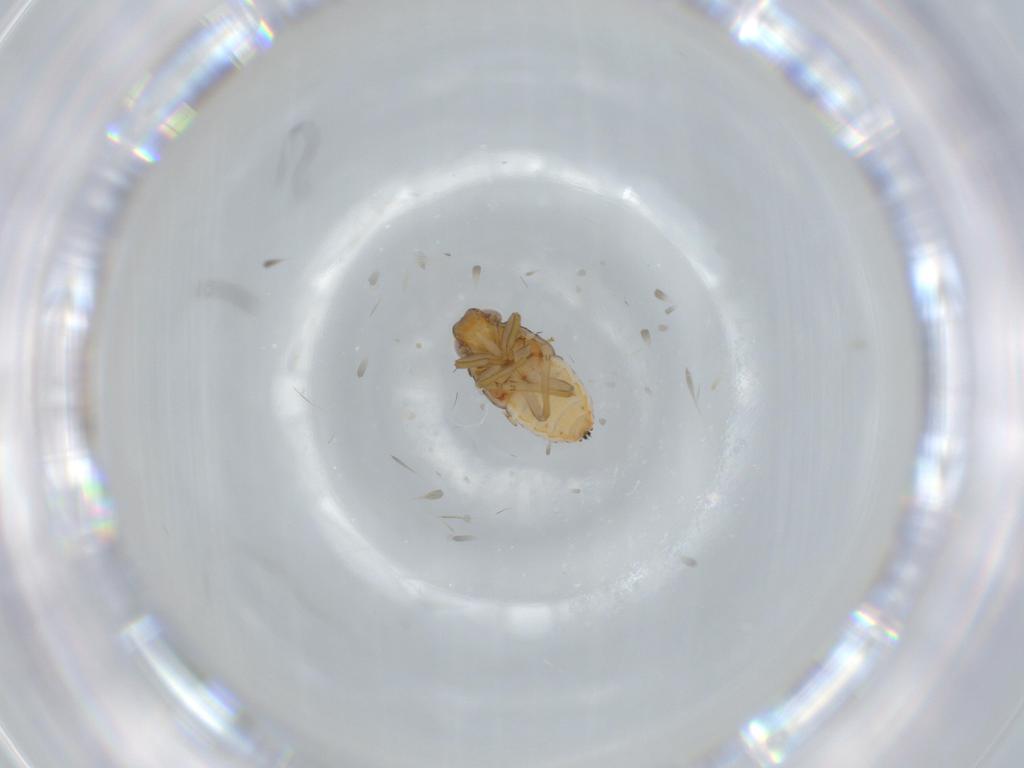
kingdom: Animalia
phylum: Arthropoda
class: Insecta
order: Hemiptera
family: Issidae
